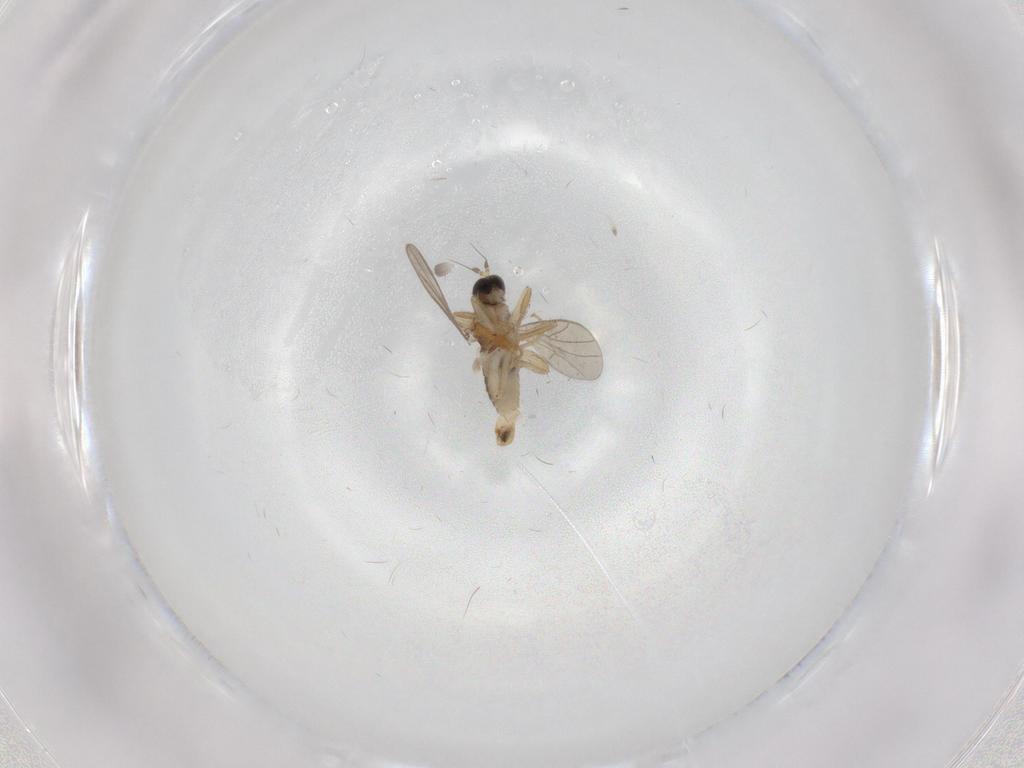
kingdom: Animalia
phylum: Arthropoda
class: Insecta
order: Diptera
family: Hybotidae
